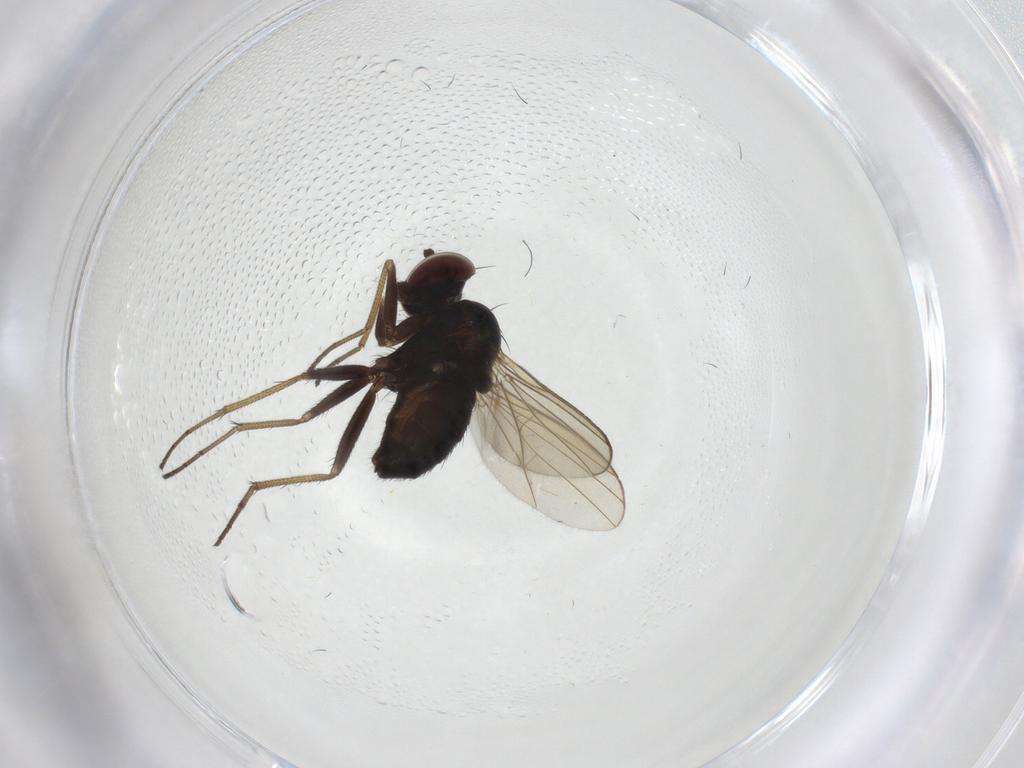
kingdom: Animalia
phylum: Arthropoda
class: Insecta
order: Diptera
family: Dolichopodidae
